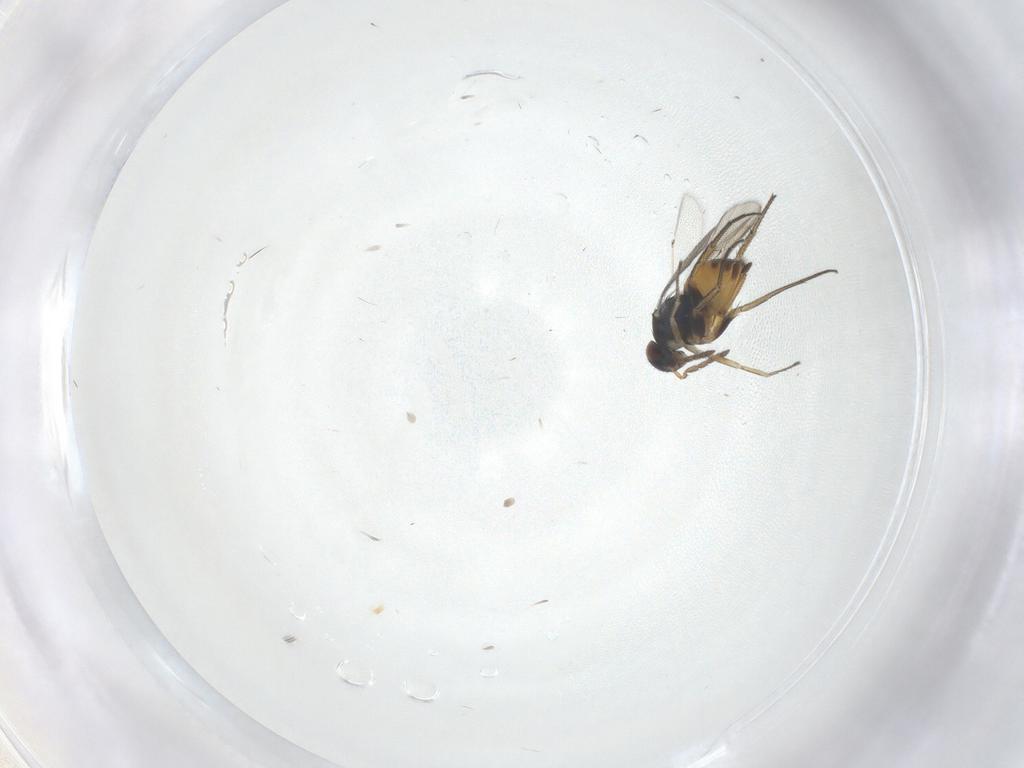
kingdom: Animalia
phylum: Arthropoda
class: Insecta
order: Hymenoptera
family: Eulophidae
